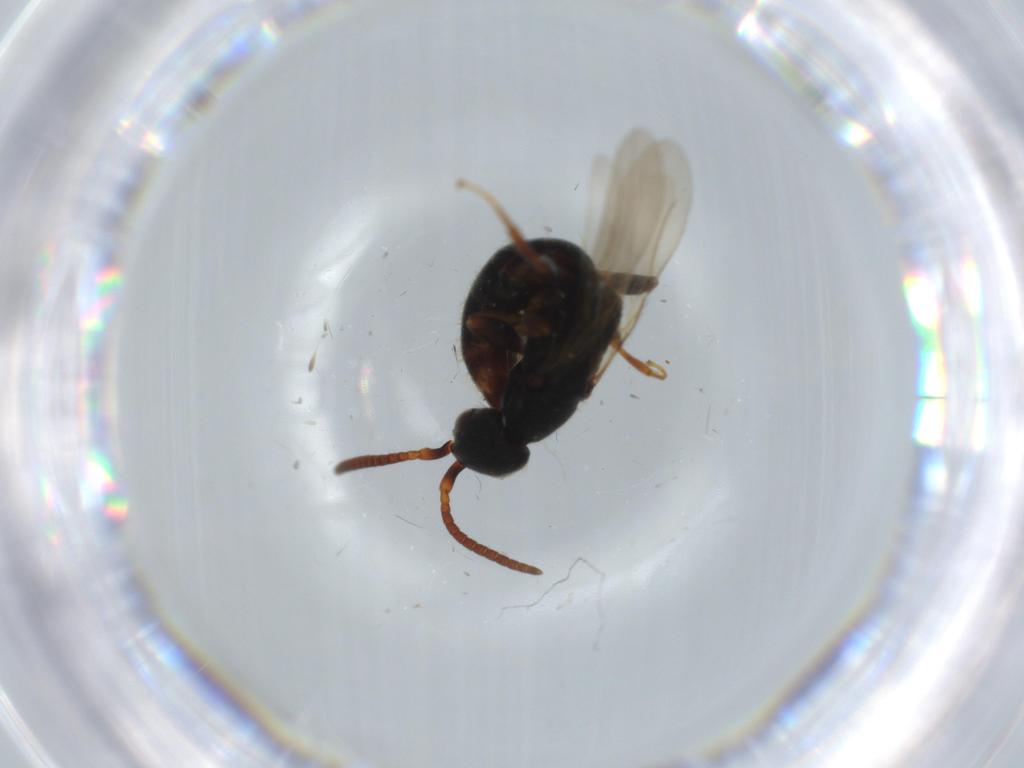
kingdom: Animalia
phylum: Arthropoda
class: Insecta
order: Hymenoptera
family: Bethylidae
